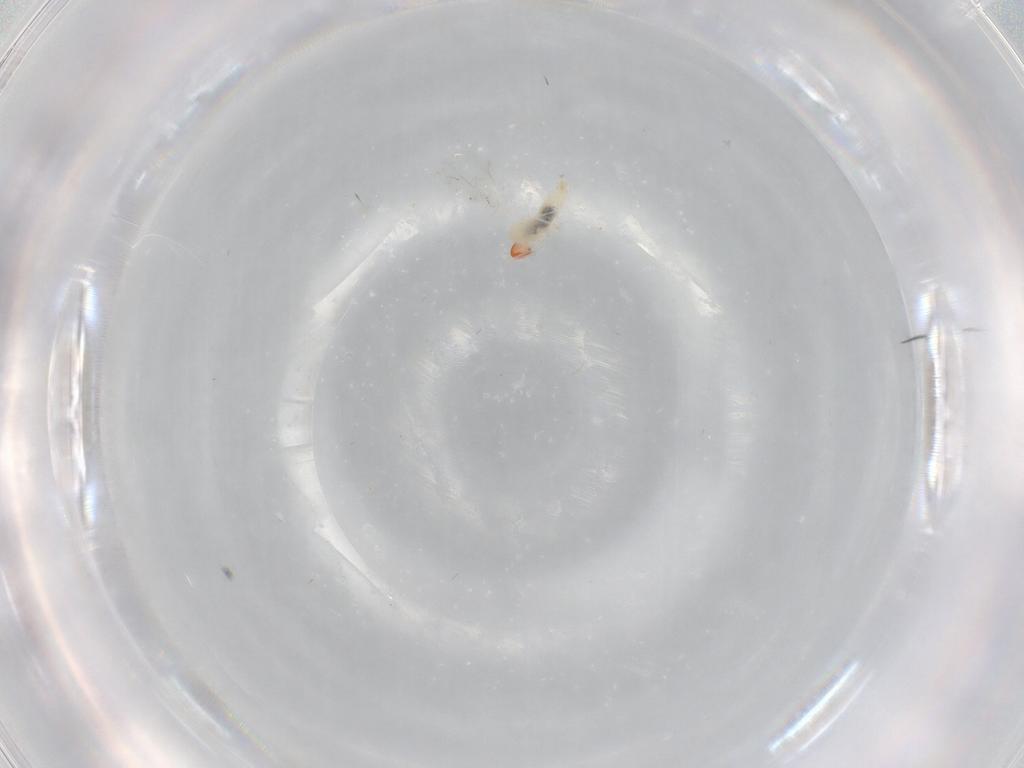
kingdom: Animalia
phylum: Arthropoda
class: Insecta
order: Diptera
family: Cecidomyiidae
